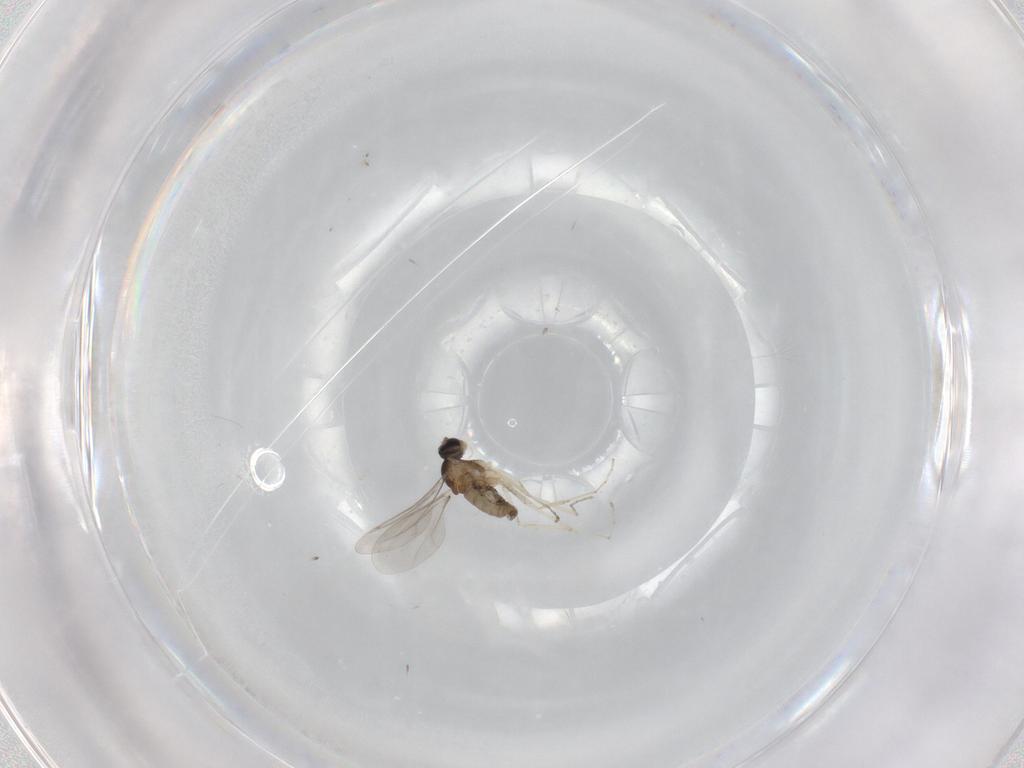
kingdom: Animalia
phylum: Arthropoda
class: Insecta
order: Diptera
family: Cecidomyiidae
